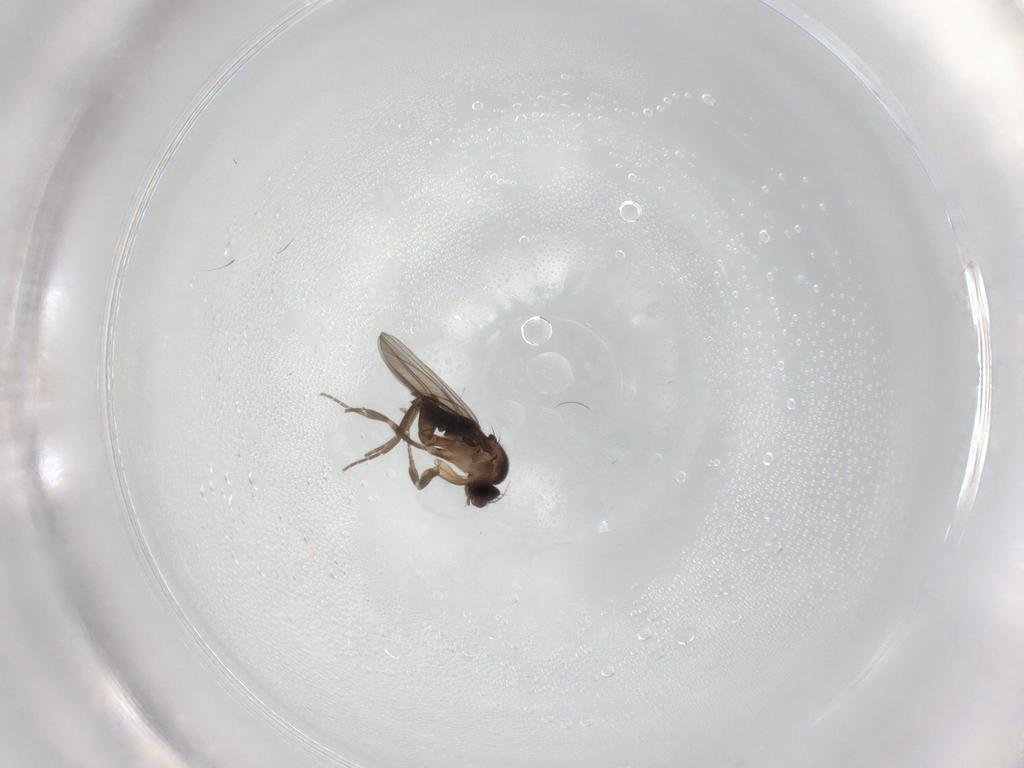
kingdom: Animalia
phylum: Arthropoda
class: Insecta
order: Diptera
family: Phoridae
